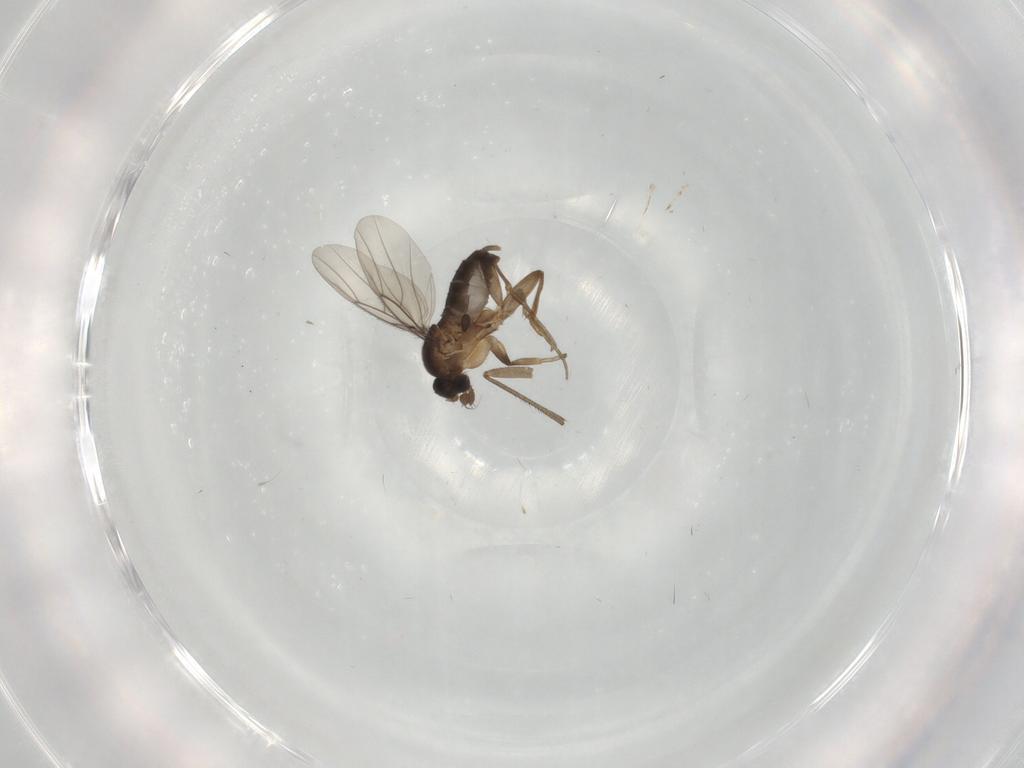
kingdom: Animalia
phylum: Arthropoda
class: Insecta
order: Diptera
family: Cecidomyiidae
